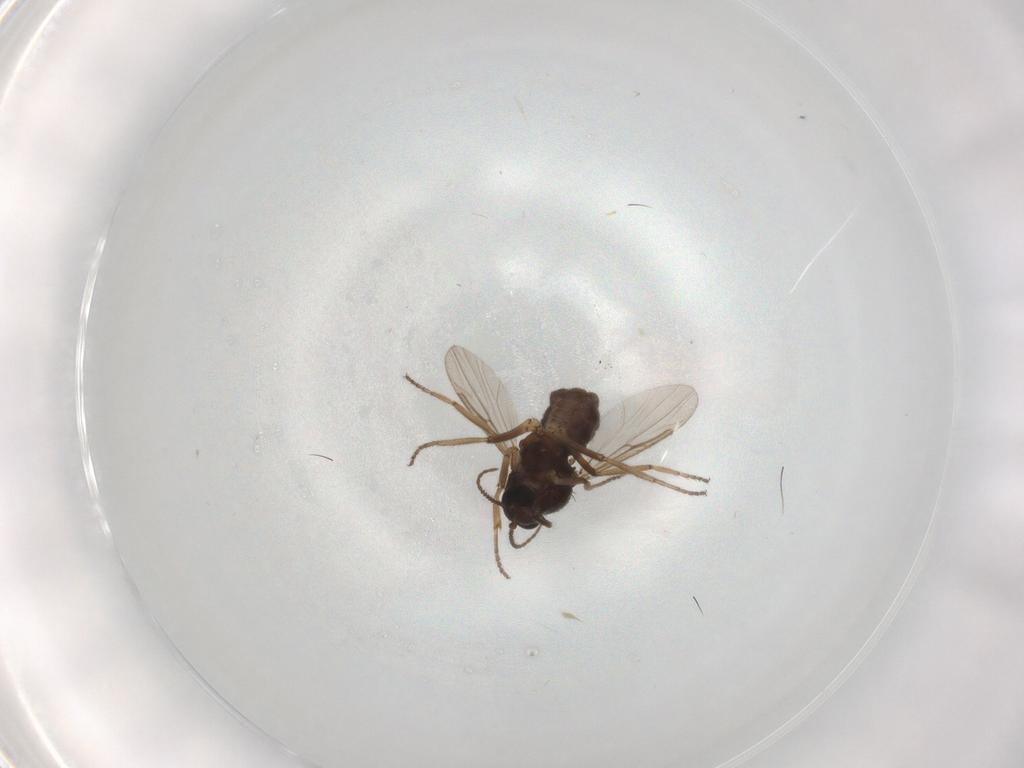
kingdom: Animalia
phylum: Arthropoda
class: Insecta
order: Diptera
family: Ceratopogonidae
